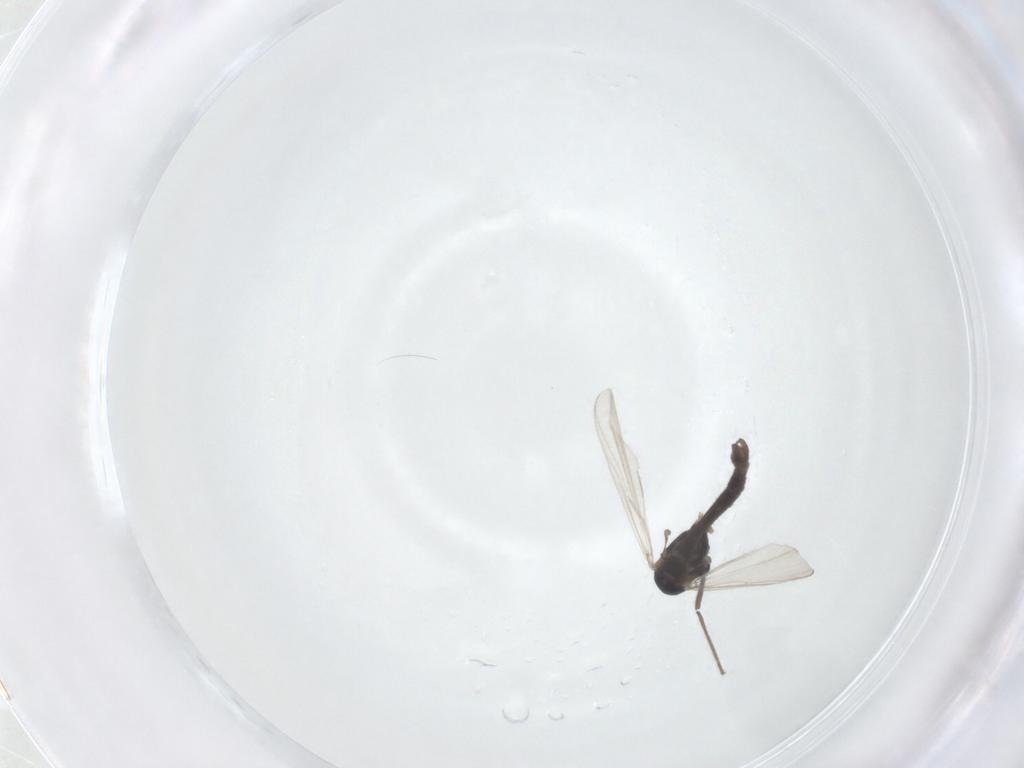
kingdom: Animalia
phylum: Arthropoda
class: Insecta
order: Diptera
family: Chironomidae
